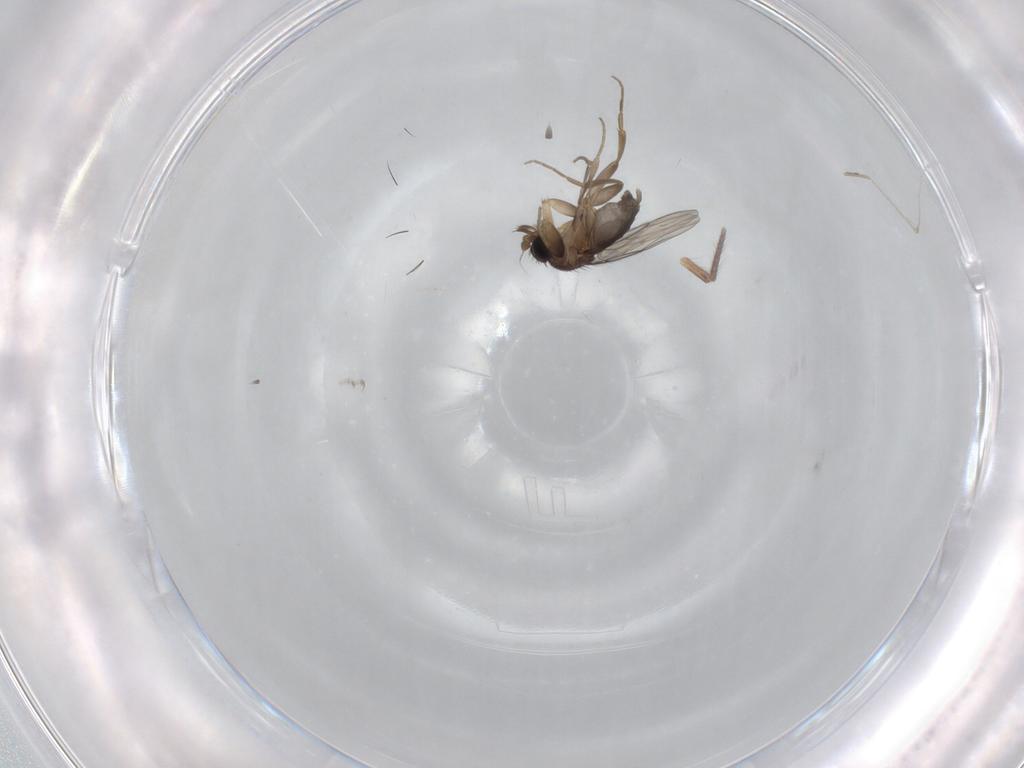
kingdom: Animalia
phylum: Arthropoda
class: Insecta
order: Diptera
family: Phoridae
